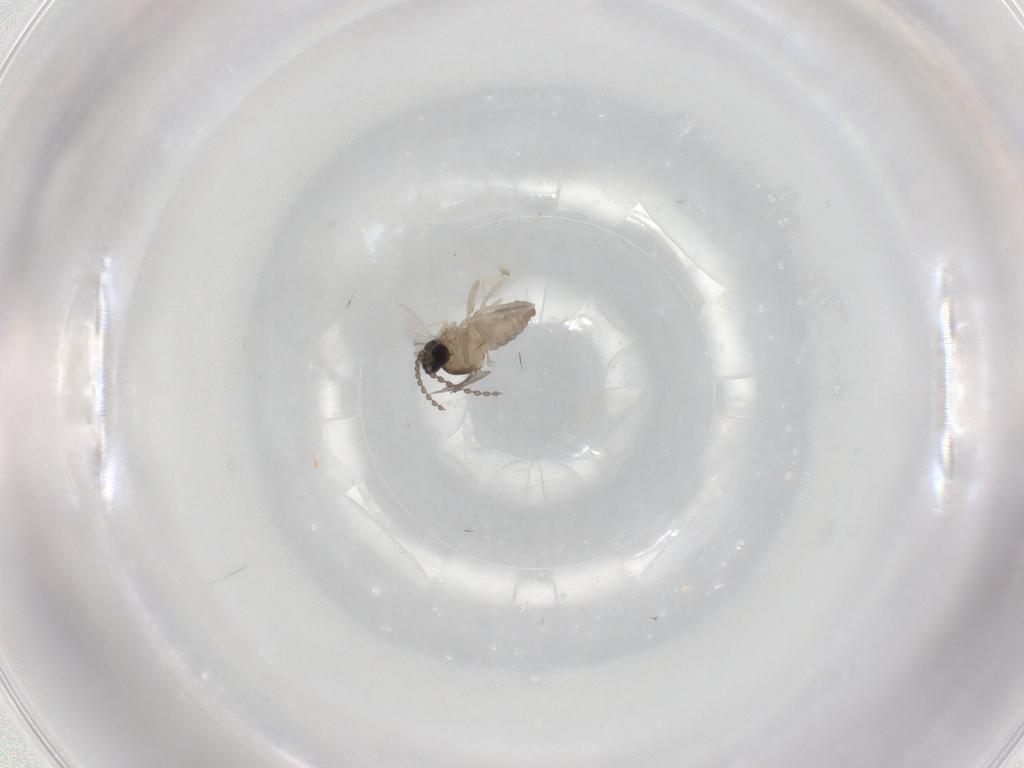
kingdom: Animalia
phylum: Arthropoda
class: Insecta
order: Diptera
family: Cecidomyiidae
